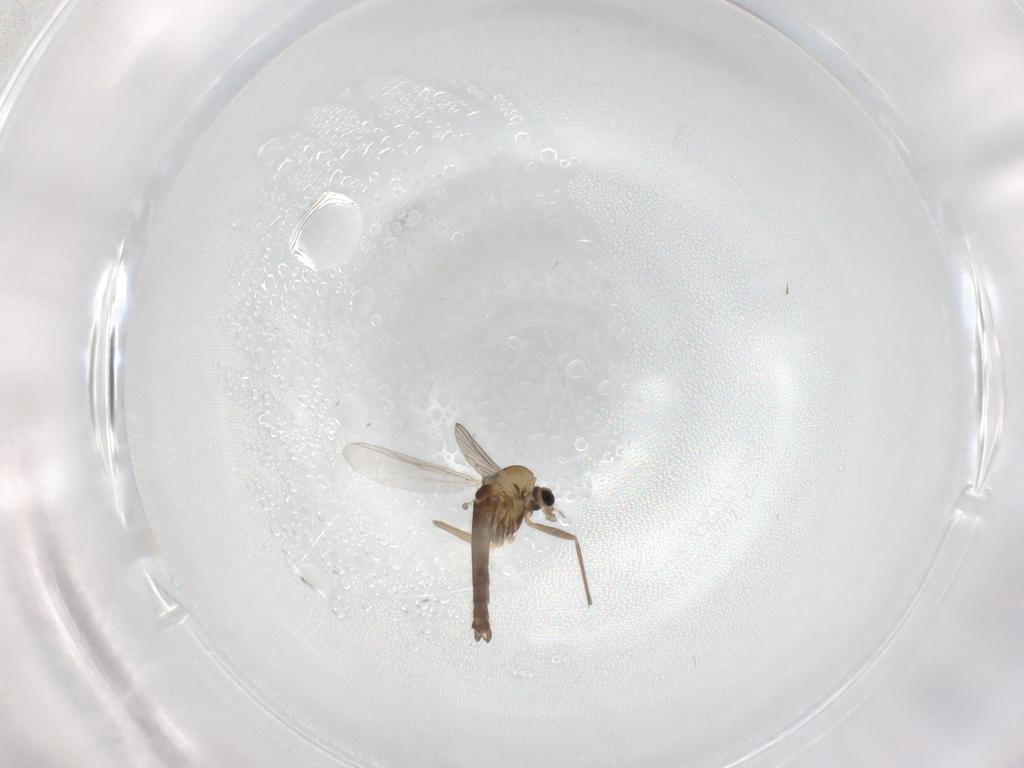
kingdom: Animalia
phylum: Arthropoda
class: Insecta
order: Diptera
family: Chironomidae
